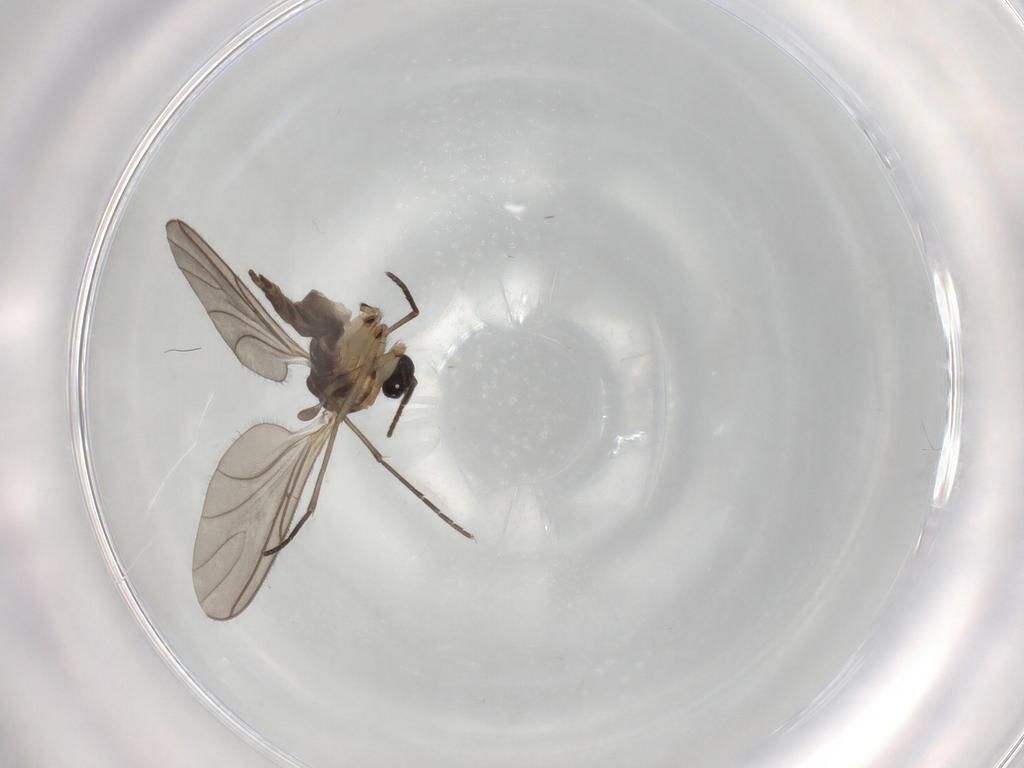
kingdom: Animalia
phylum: Arthropoda
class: Insecta
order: Diptera
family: Sciaridae
